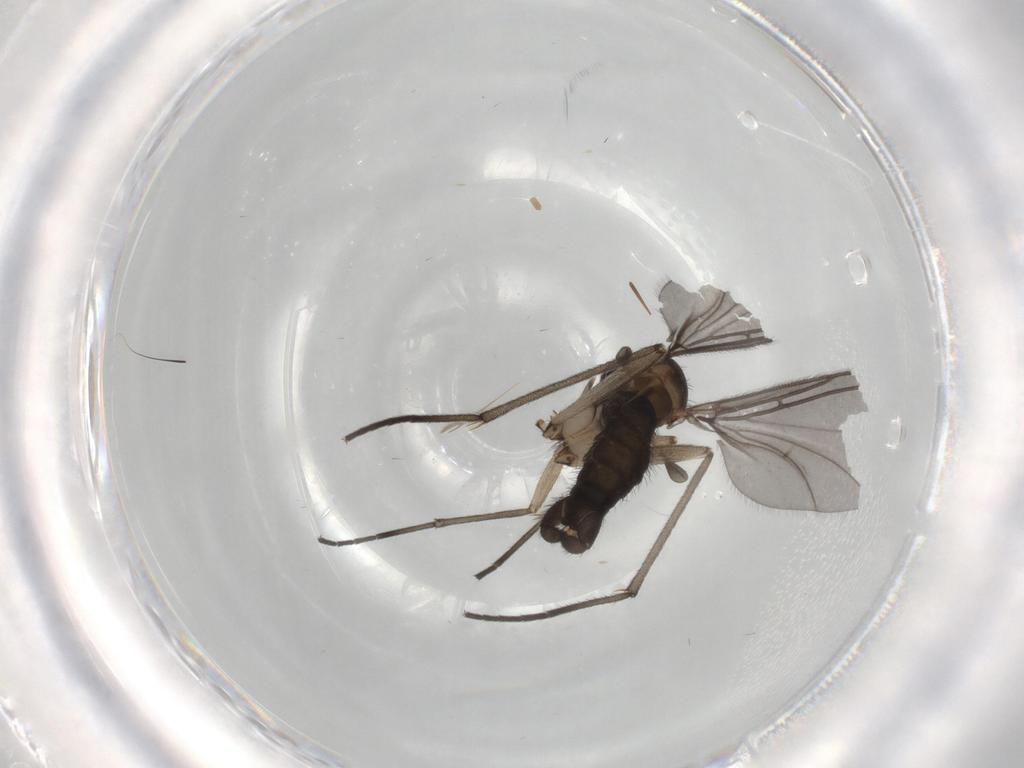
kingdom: Animalia
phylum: Arthropoda
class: Insecta
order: Diptera
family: Sciaridae
